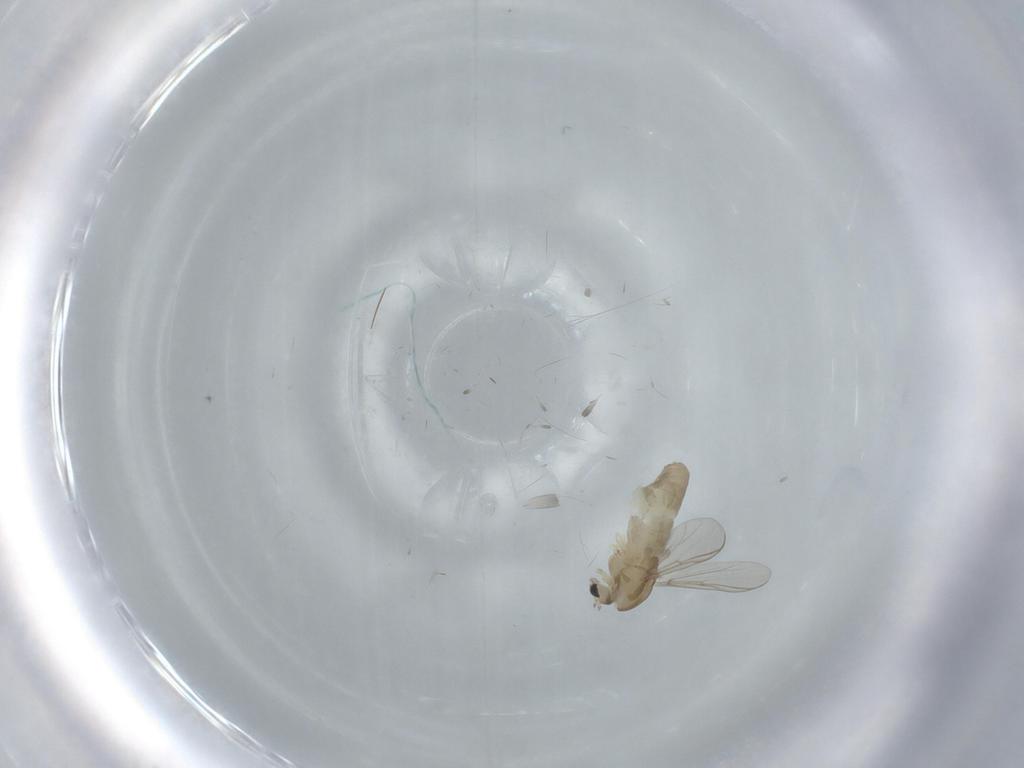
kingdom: Animalia
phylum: Arthropoda
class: Insecta
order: Diptera
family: Chironomidae
